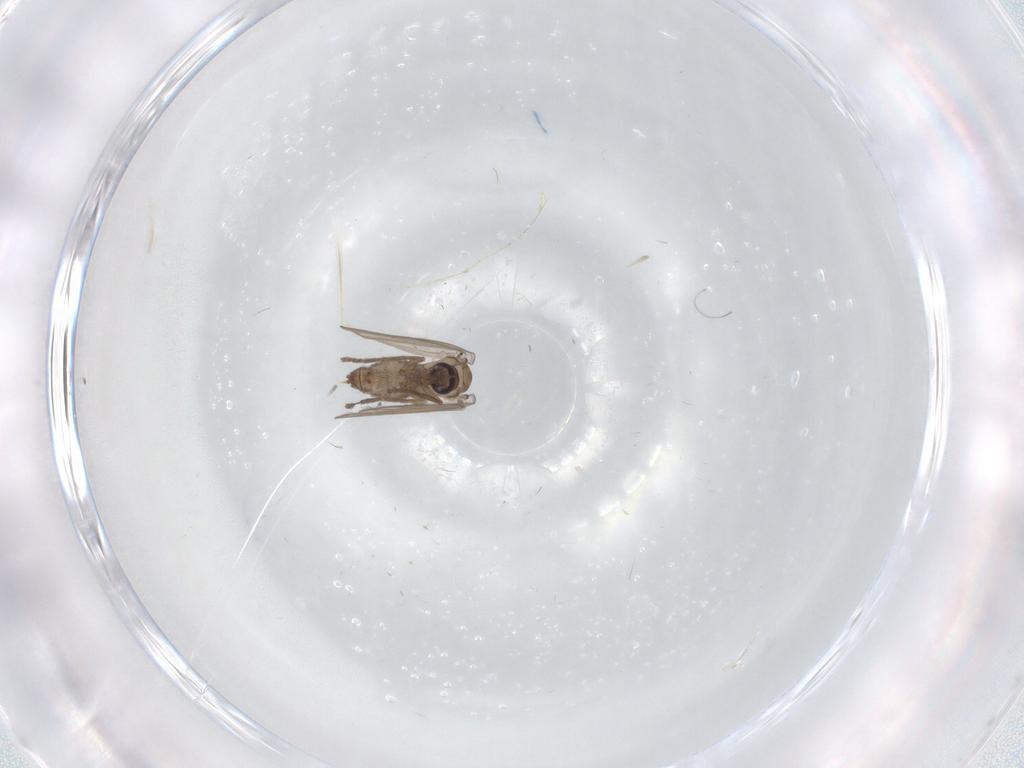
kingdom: Animalia
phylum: Arthropoda
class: Insecta
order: Diptera
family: Psychodidae
